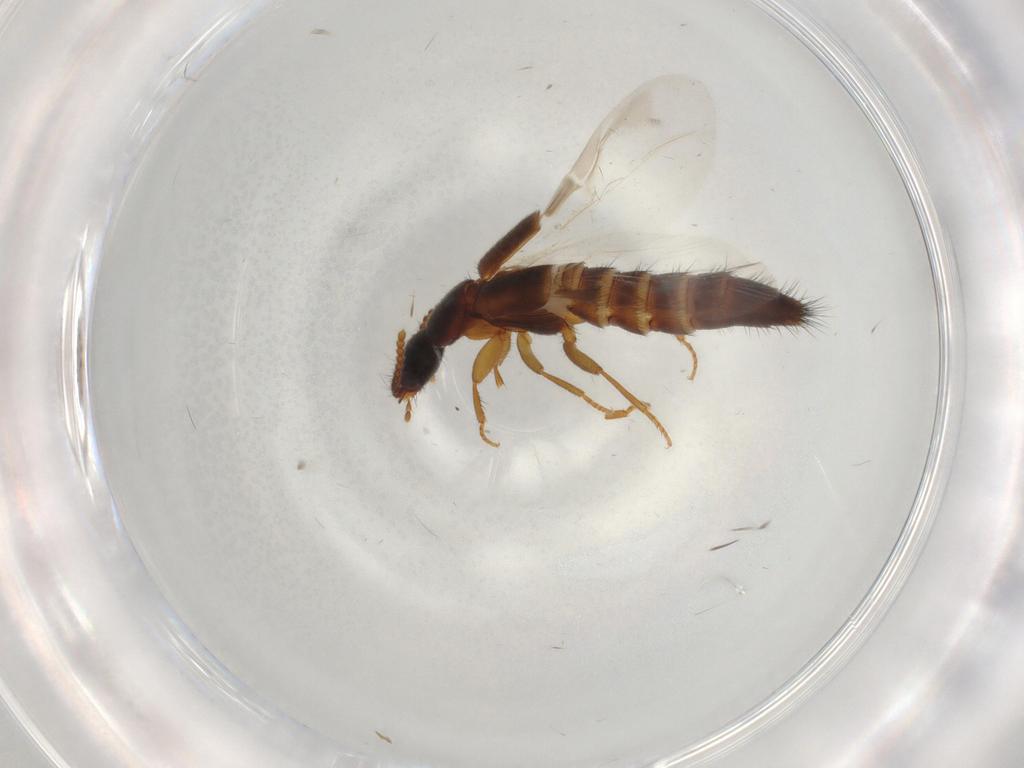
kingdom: Animalia
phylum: Arthropoda
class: Insecta
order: Coleoptera
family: Staphylinidae
